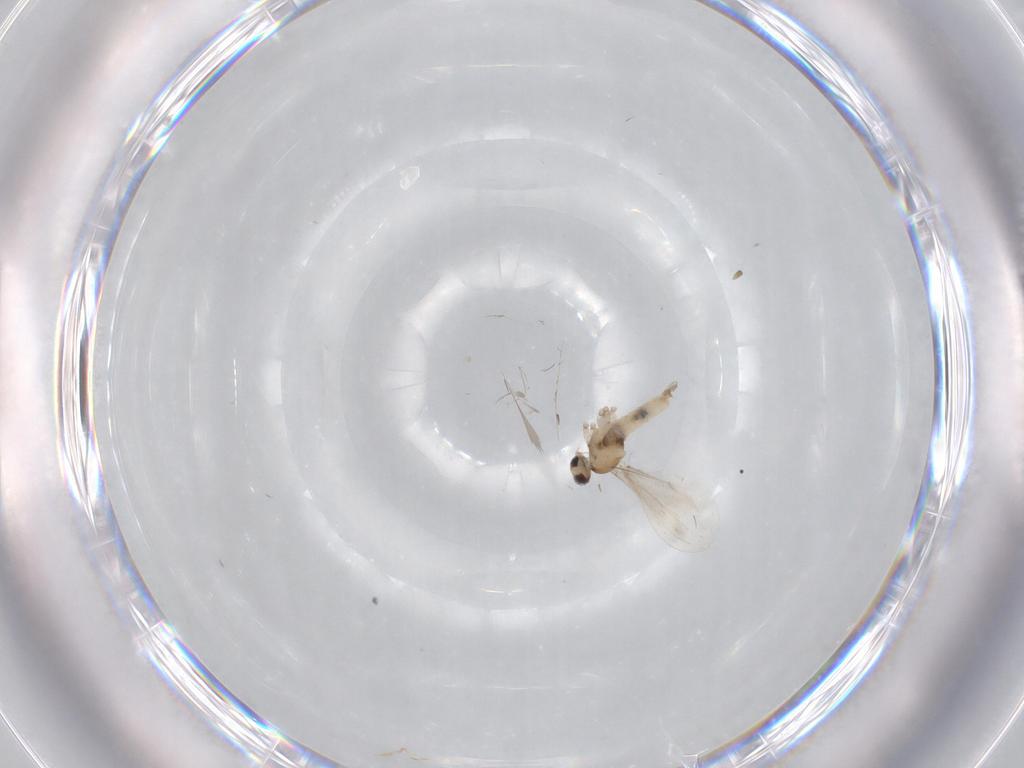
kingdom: Animalia
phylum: Arthropoda
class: Insecta
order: Diptera
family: Cecidomyiidae
